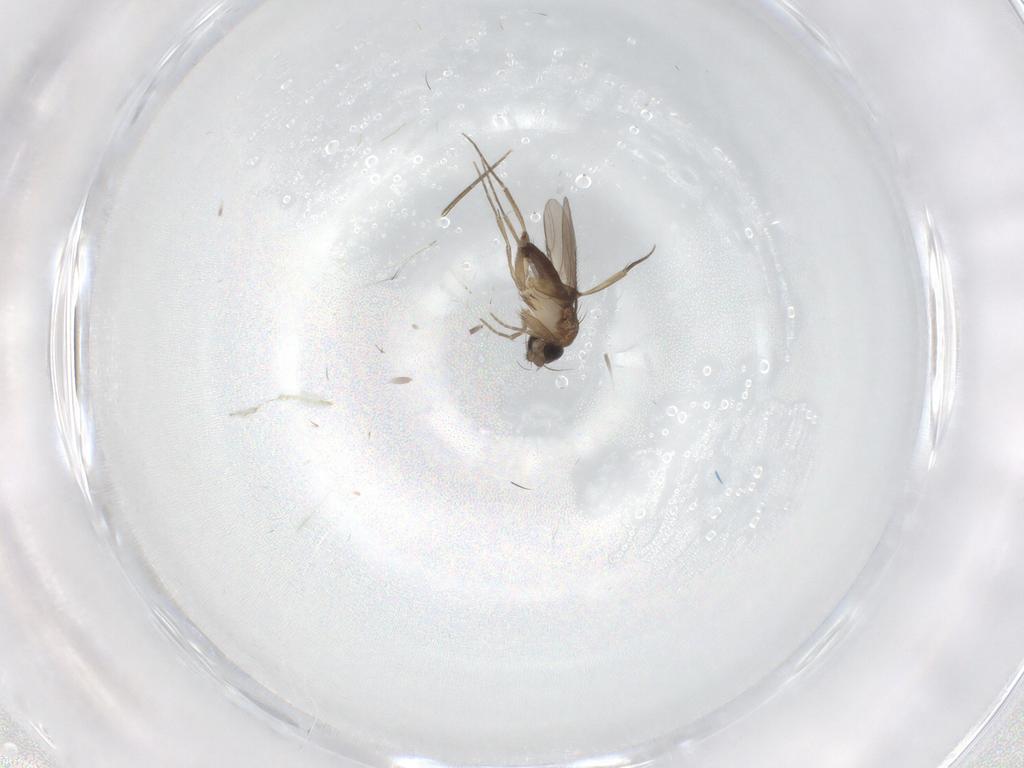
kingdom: Animalia
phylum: Arthropoda
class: Insecta
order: Diptera
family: Phoridae
